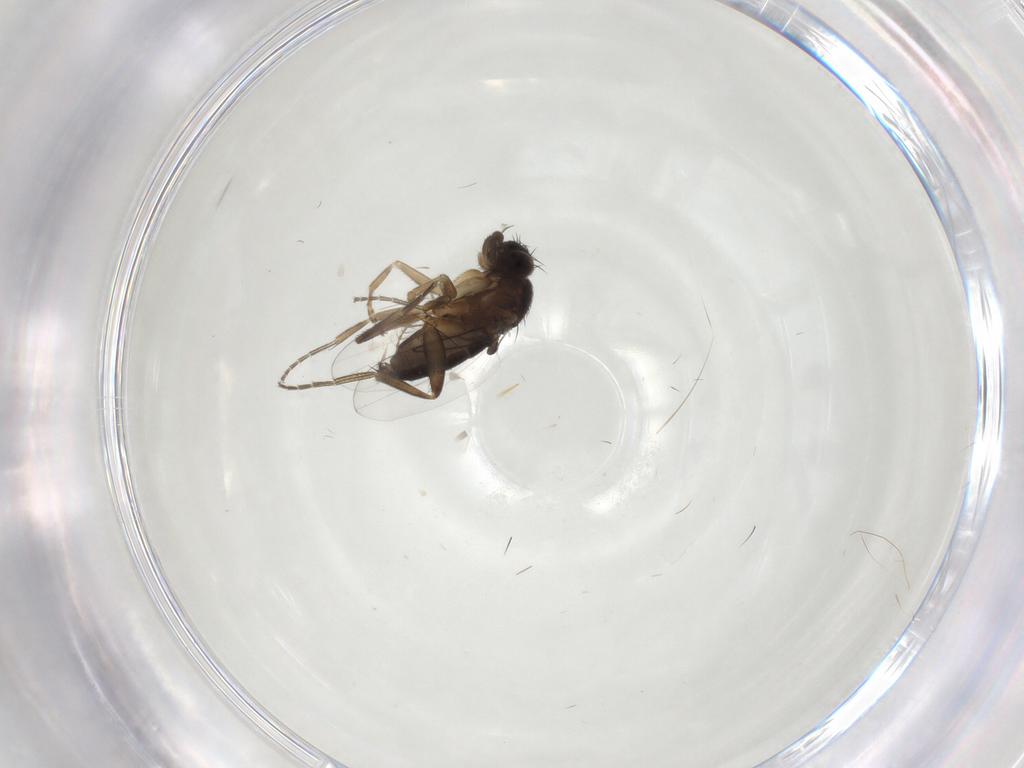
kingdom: Animalia
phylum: Arthropoda
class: Insecta
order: Diptera
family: Phoridae
